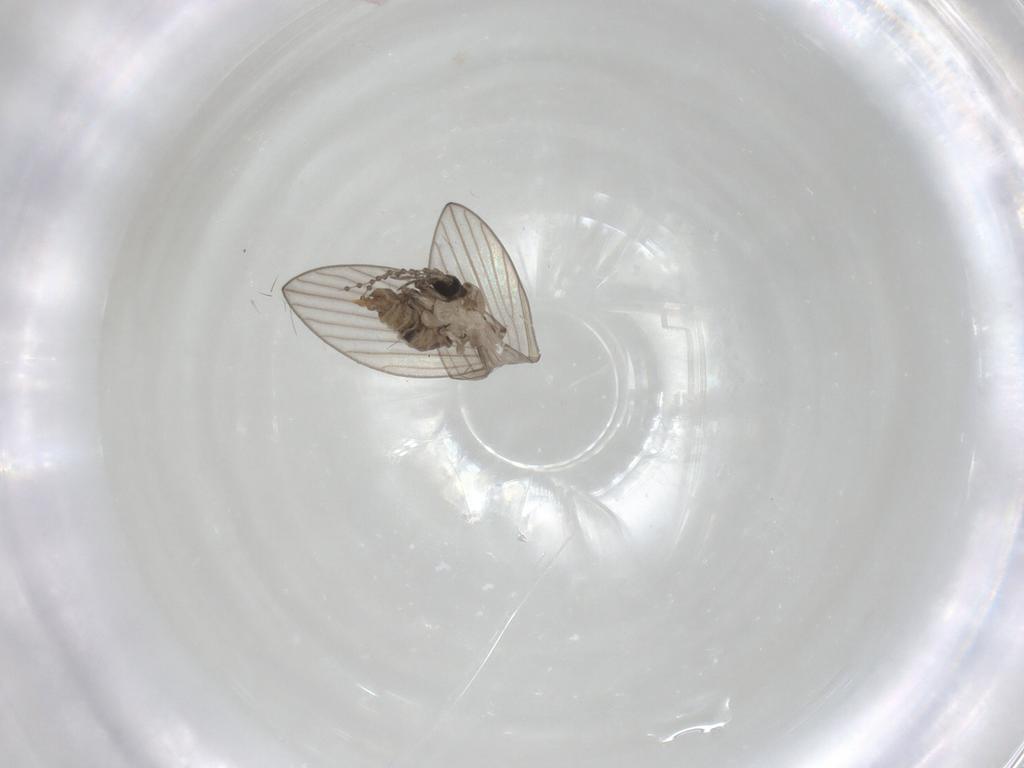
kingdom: Animalia
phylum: Arthropoda
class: Insecta
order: Diptera
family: Psychodidae
